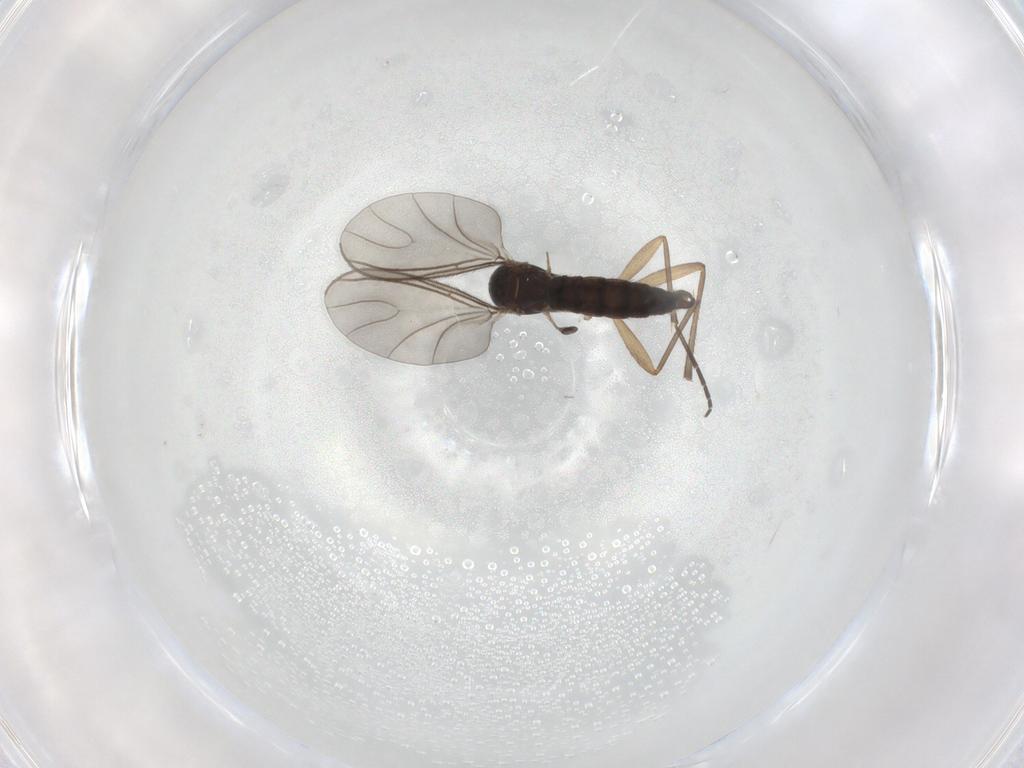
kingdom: Animalia
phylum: Arthropoda
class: Insecta
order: Diptera
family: Sciaridae
